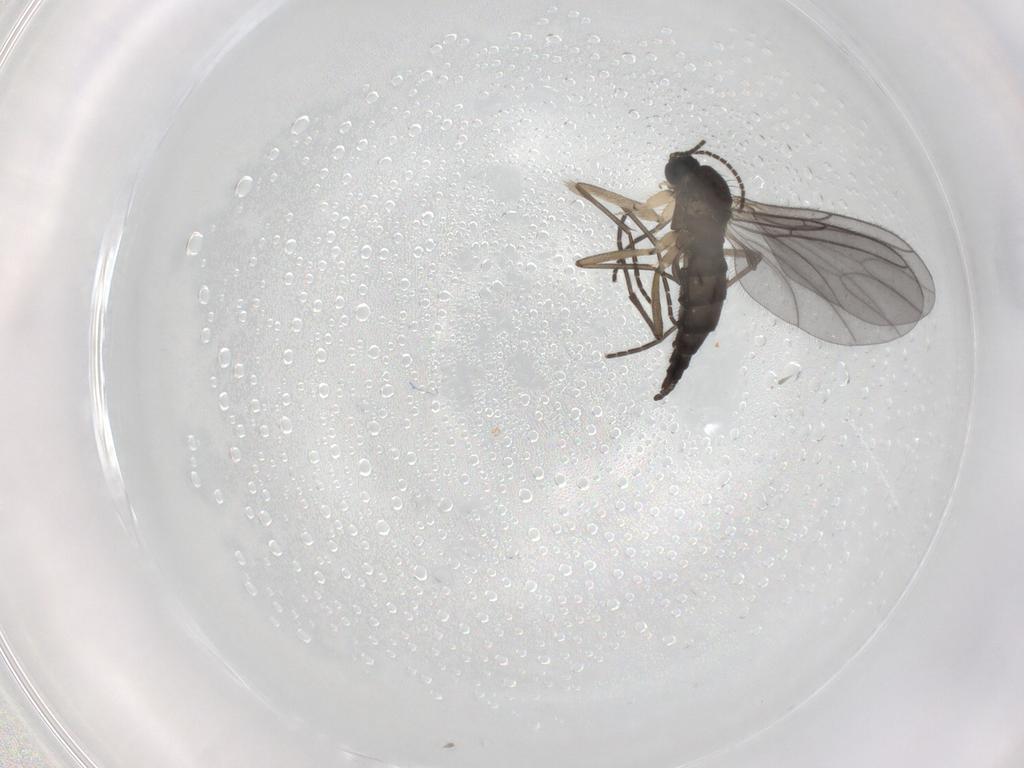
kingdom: Animalia
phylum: Arthropoda
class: Insecta
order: Diptera
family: Sciaridae
